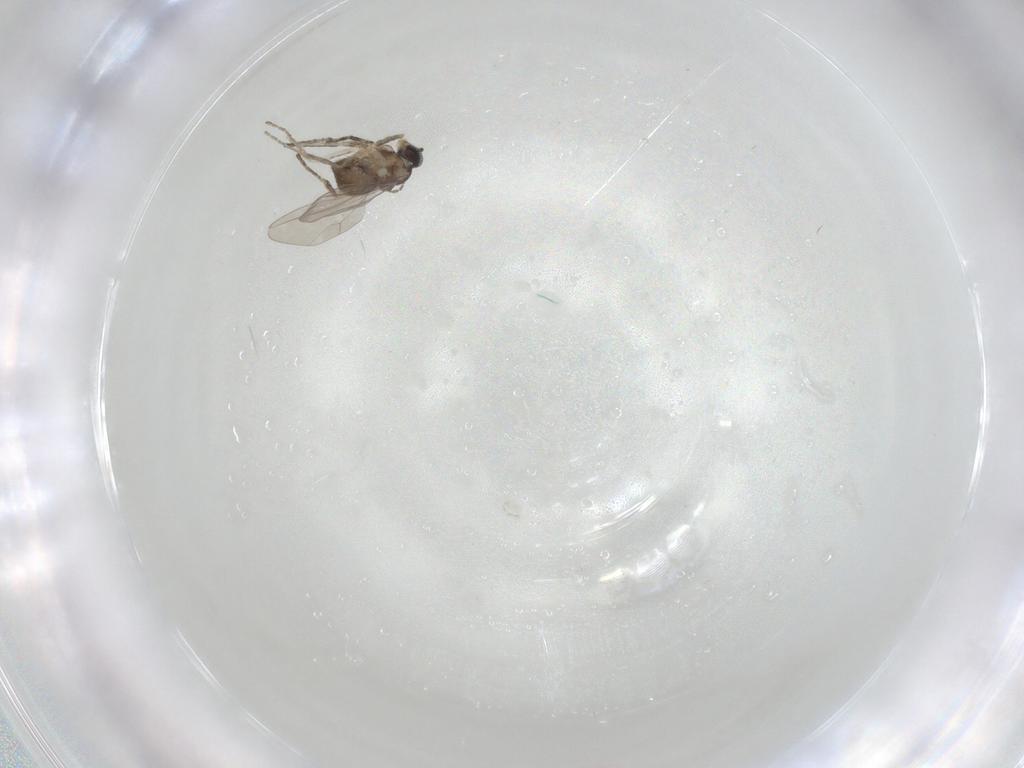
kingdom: Animalia
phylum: Arthropoda
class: Insecta
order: Diptera
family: Cecidomyiidae
